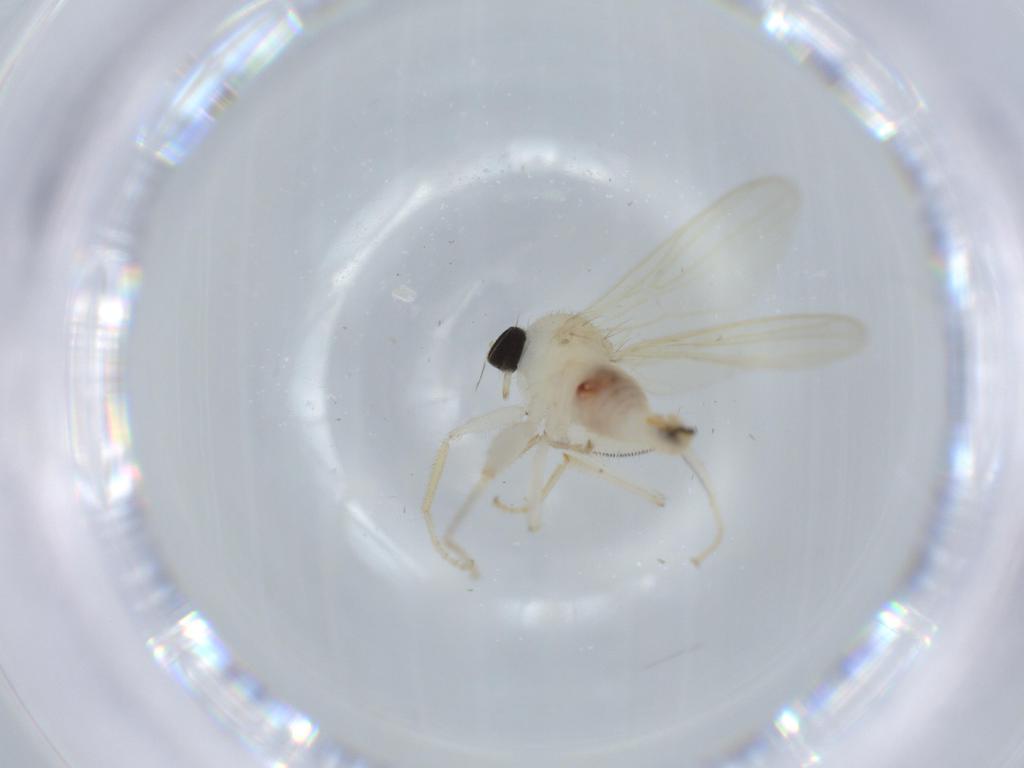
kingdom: Animalia
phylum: Arthropoda
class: Insecta
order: Diptera
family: Hybotidae
